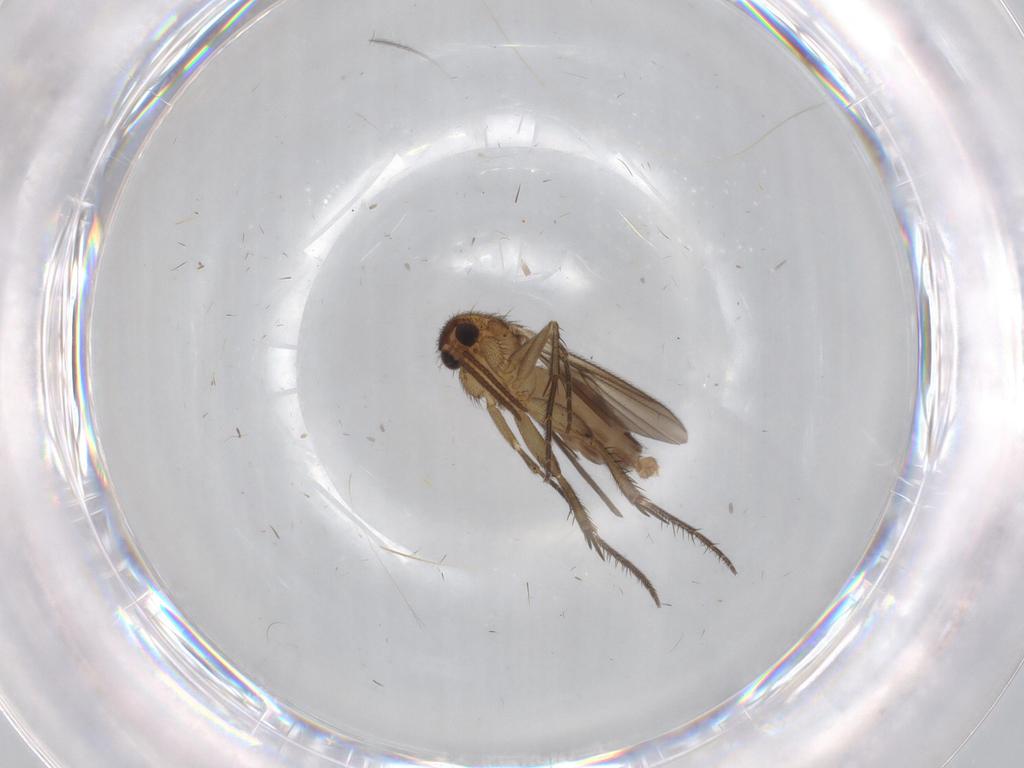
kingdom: Animalia
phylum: Arthropoda
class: Insecta
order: Diptera
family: Mycetophilidae
